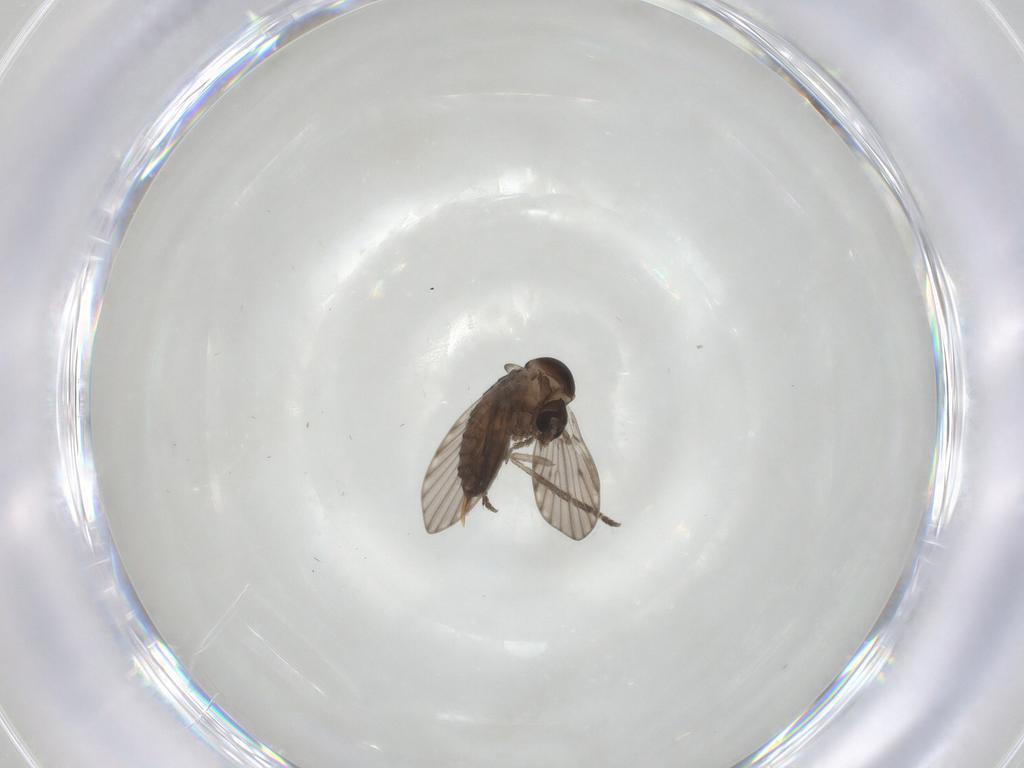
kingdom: Animalia
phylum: Arthropoda
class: Insecta
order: Diptera
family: Psychodidae
